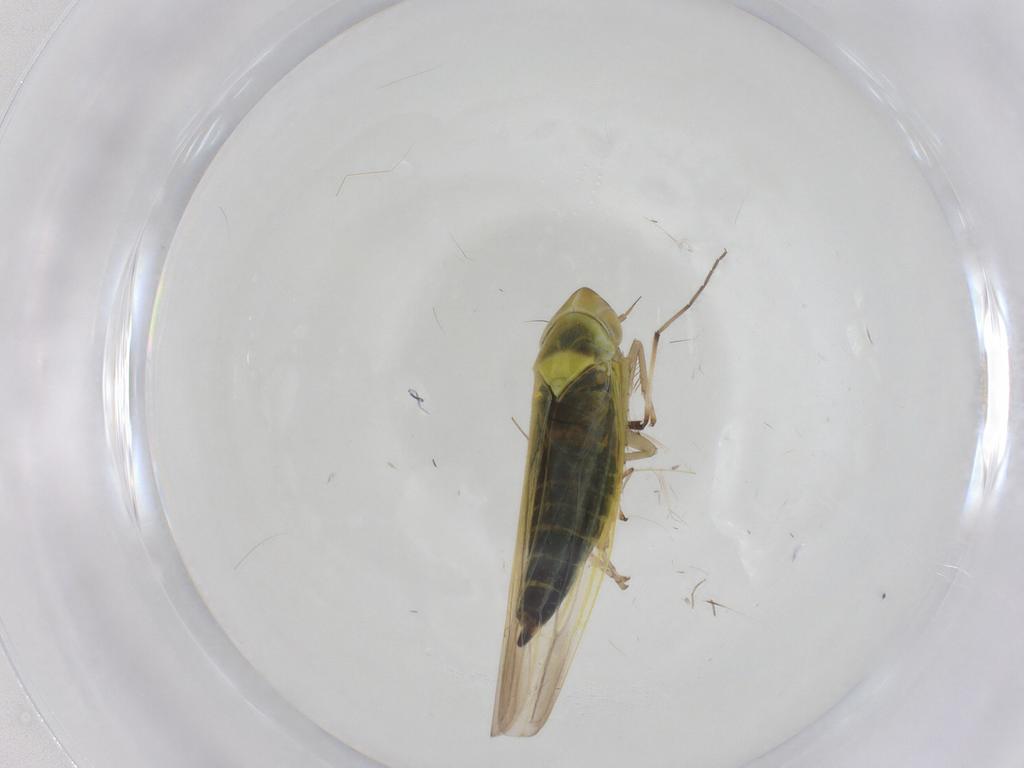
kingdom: Animalia
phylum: Arthropoda
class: Insecta
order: Hemiptera
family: Cicadellidae
